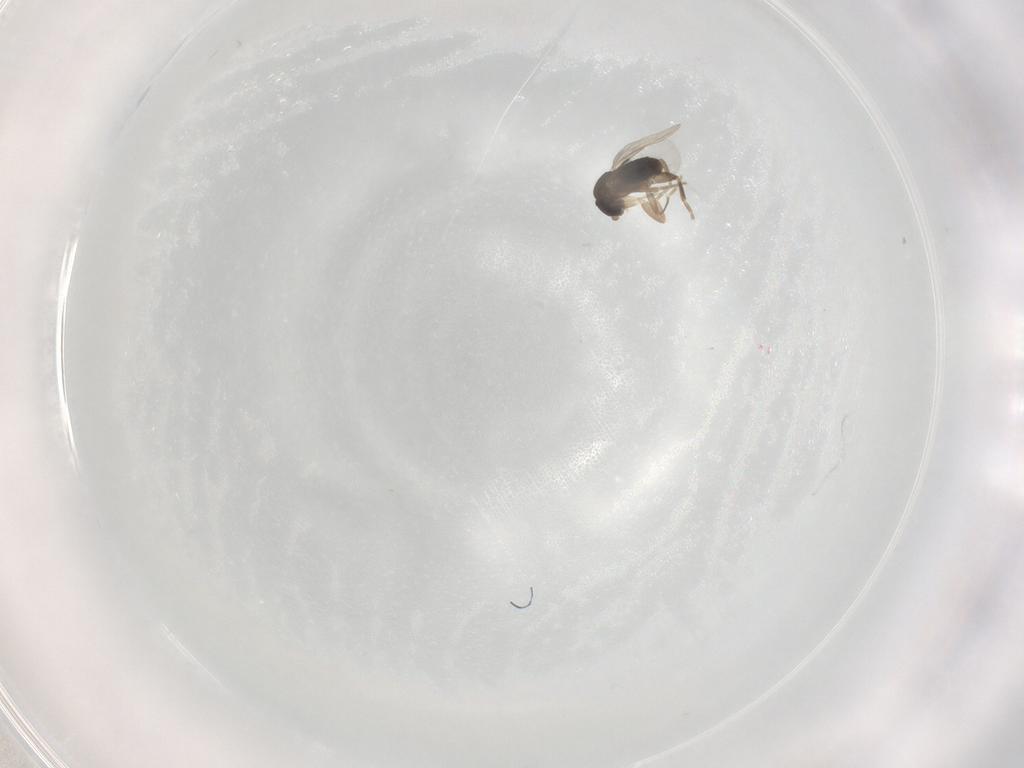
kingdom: Animalia
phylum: Arthropoda
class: Insecta
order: Diptera
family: Phoridae
